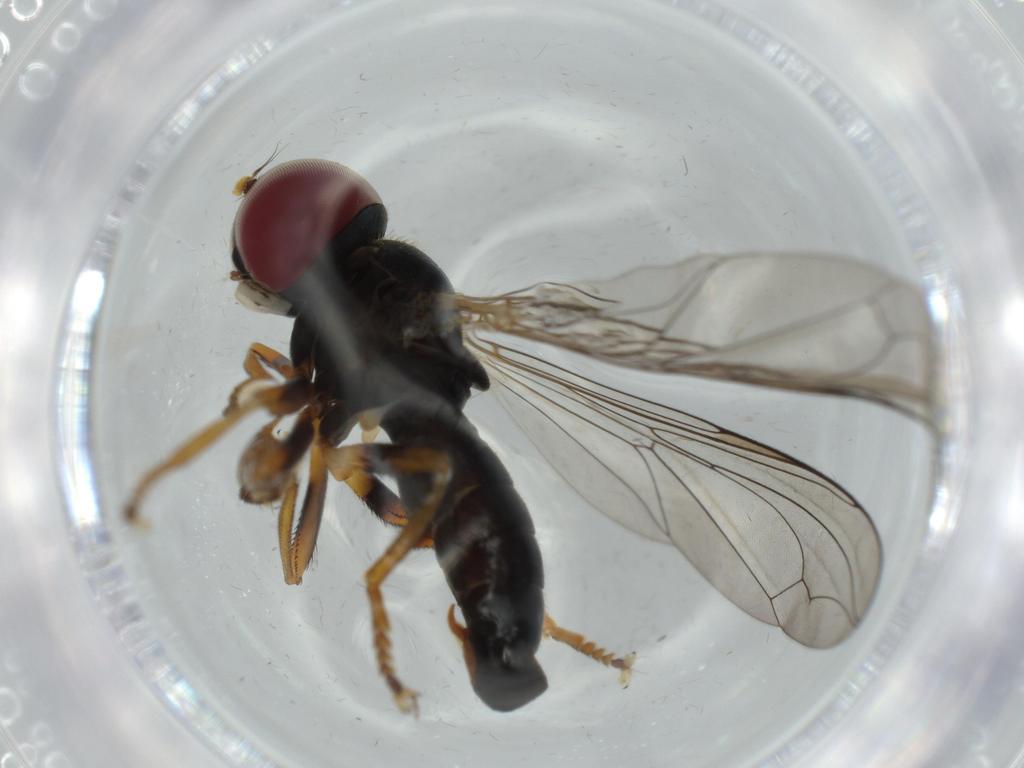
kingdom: Animalia
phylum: Arthropoda
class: Insecta
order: Diptera
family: Pipunculidae
